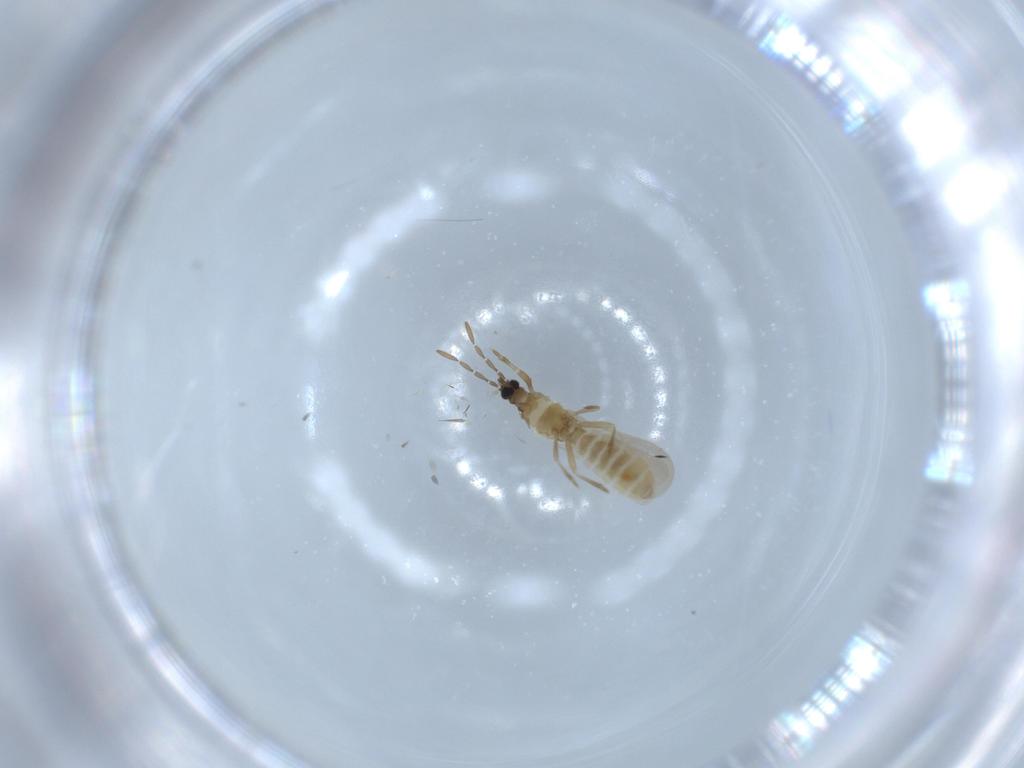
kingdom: Animalia
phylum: Arthropoda
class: Insecta
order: Hemiptera
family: Enicocephalidae
